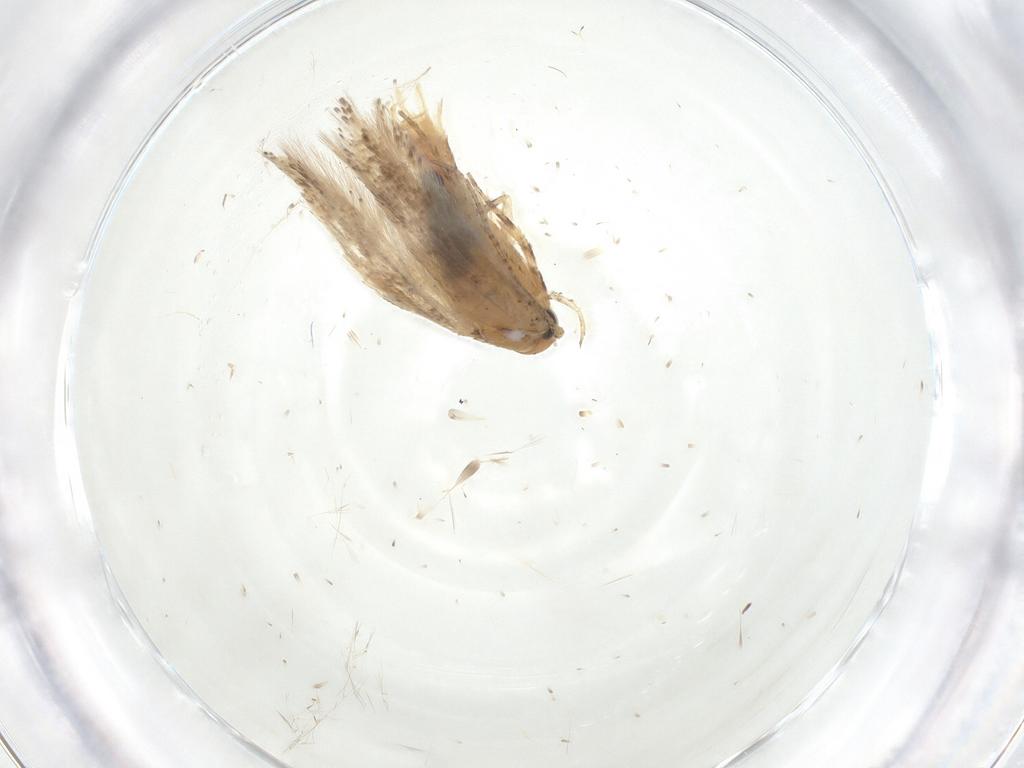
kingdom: Animalia
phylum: Arthropoda
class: Insecta
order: Lepidoptera
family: Gelechiidae
